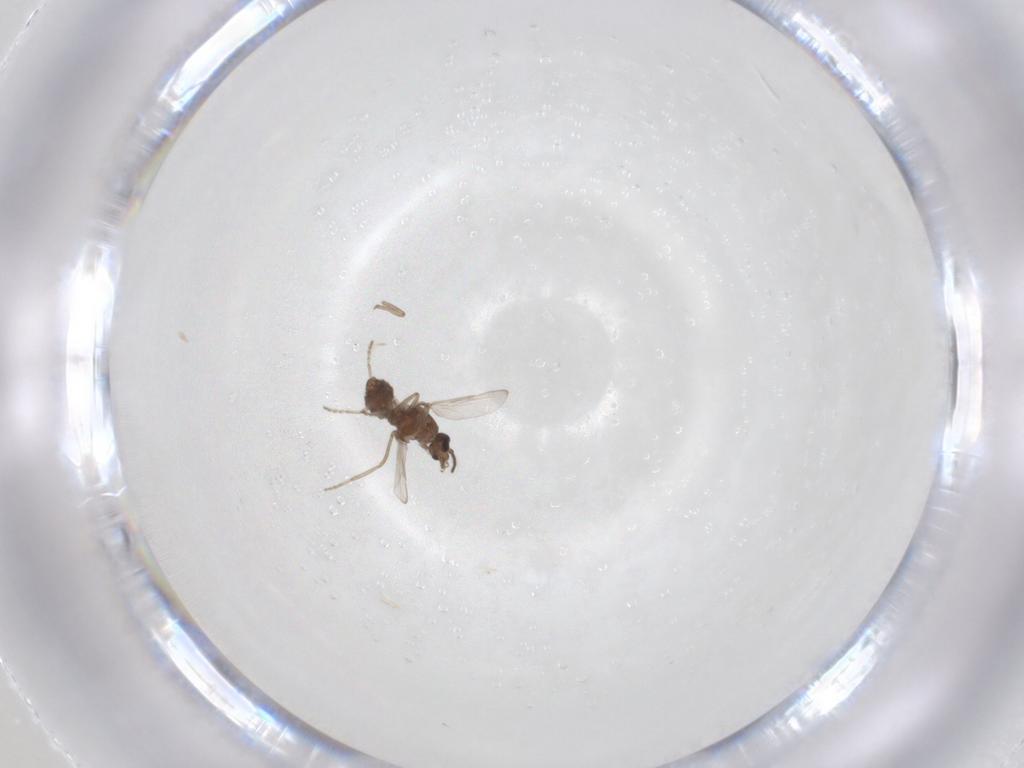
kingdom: Animalia
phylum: Arthropoda
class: Insecta
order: Diptera
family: Ceratopogonidae
